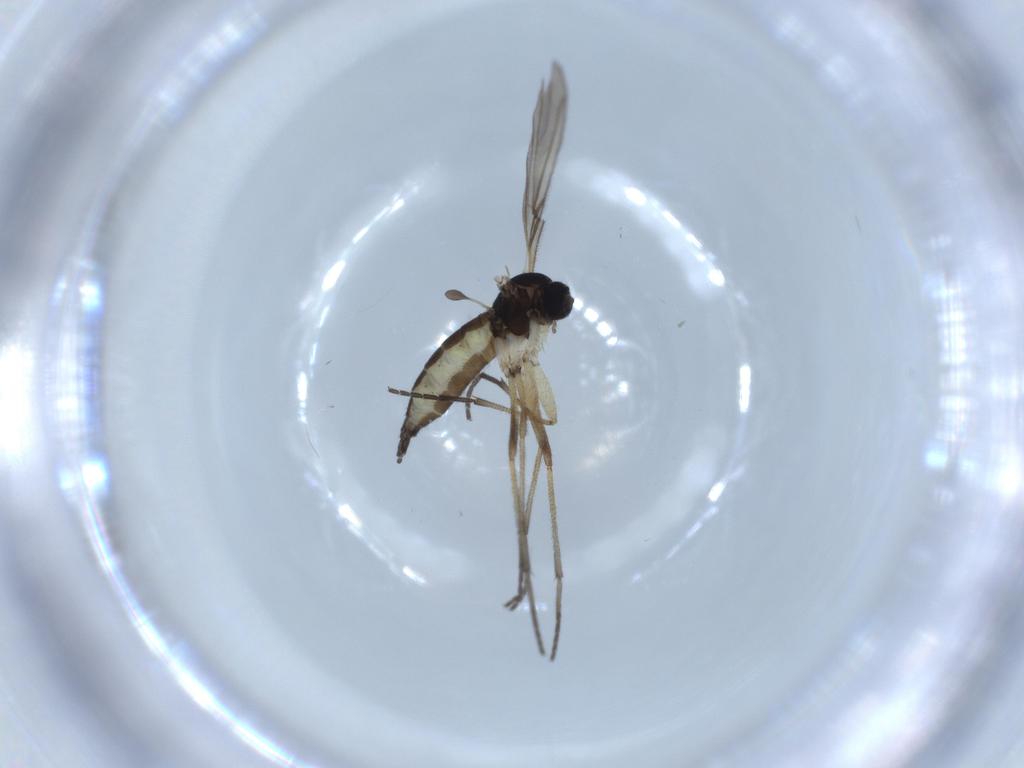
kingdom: Animalia
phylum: Arthropoda
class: Insecta
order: Diptera
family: Sciaridae
